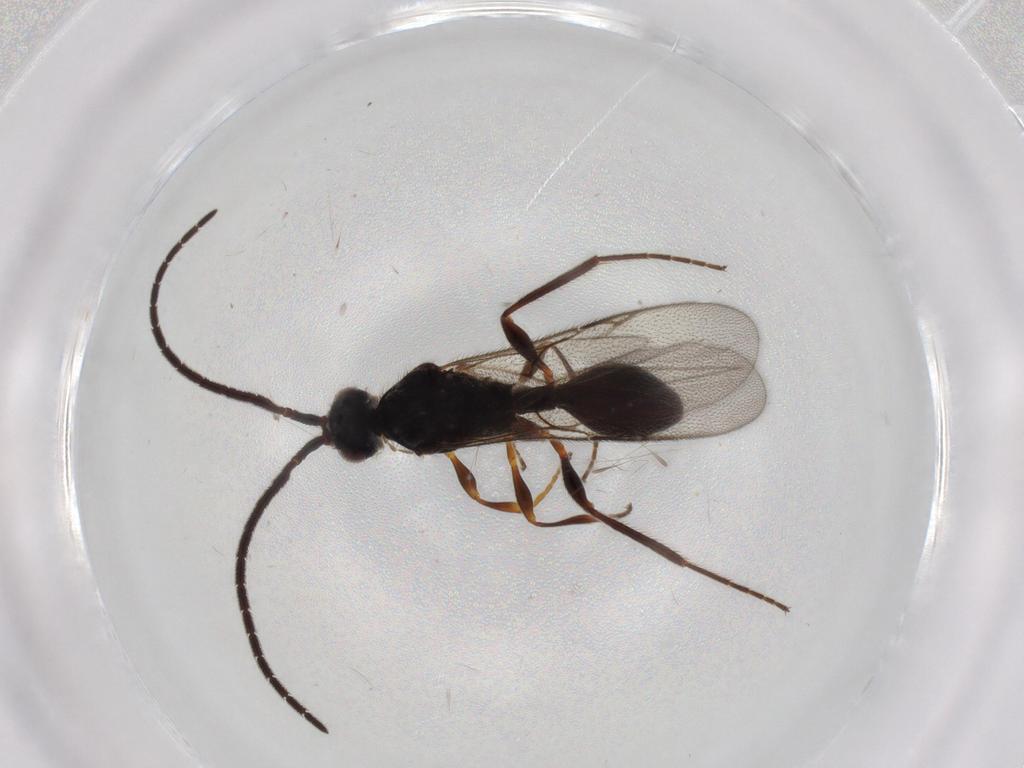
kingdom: Animalia
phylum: Arthropoda
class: Insecta
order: Hymenoptera
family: Diapriidae
